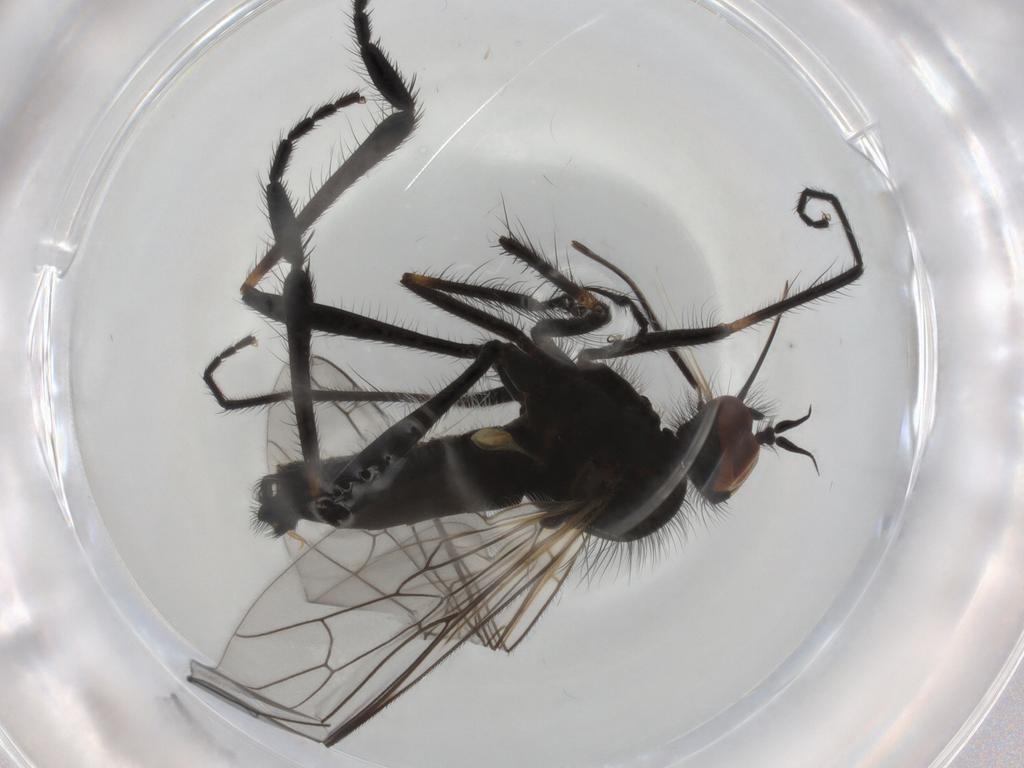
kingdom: Animalia
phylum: Arthropoda
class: Insecta
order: Diptera
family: Empididae
